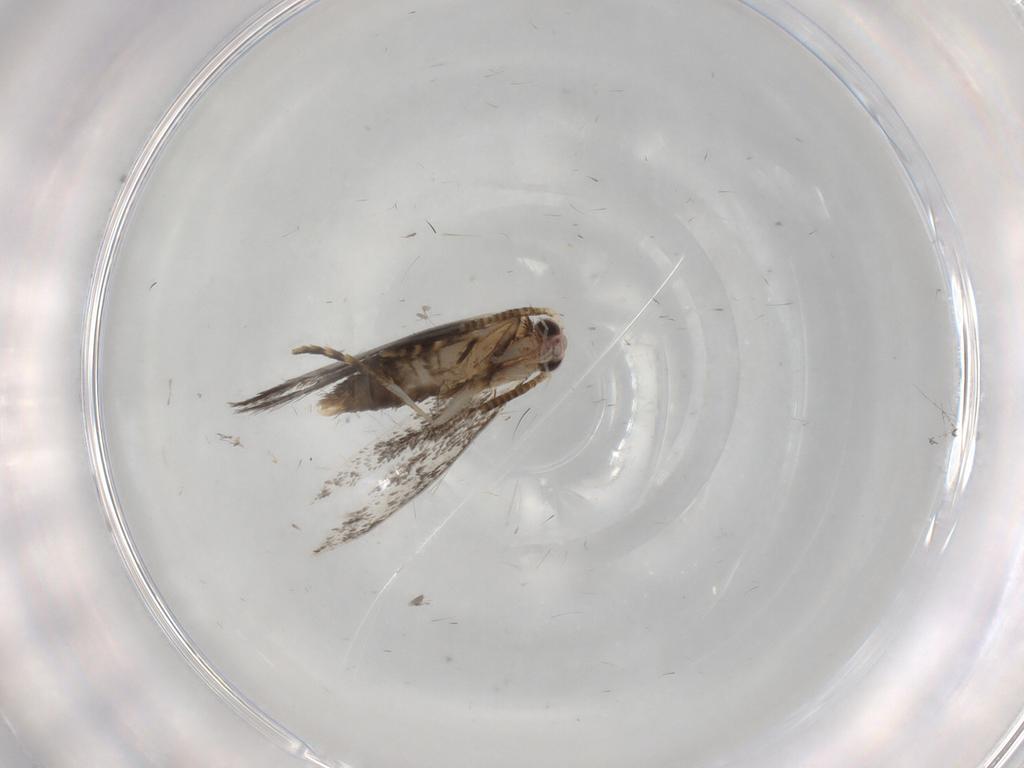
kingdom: Animalia
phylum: Arthropoda
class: Insecta
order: Lepidoptera
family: Tineidae
